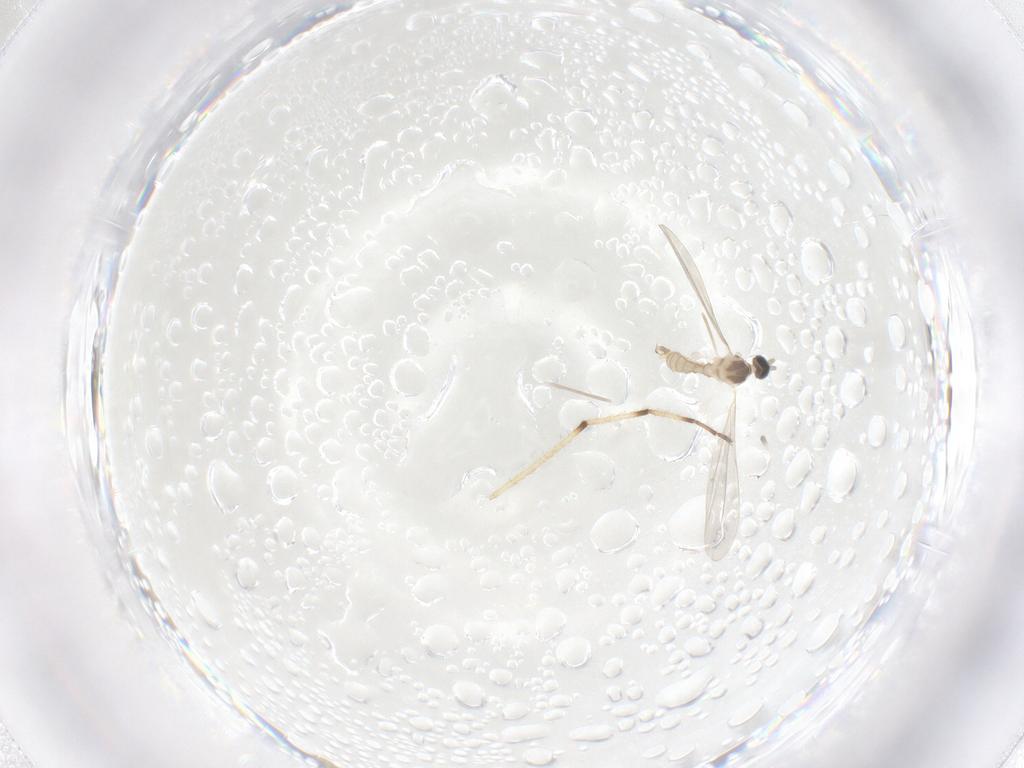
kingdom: Animalia
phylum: Arthropoda
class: Insecta
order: Diptera
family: Cecidomyiidae
